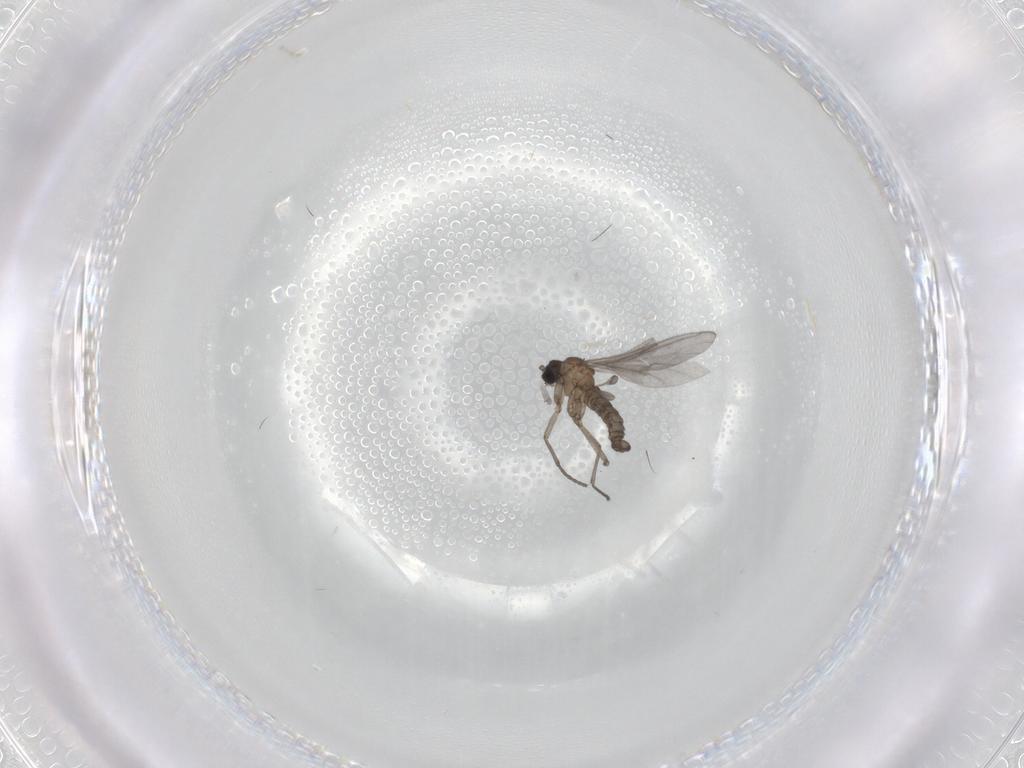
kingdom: Animalia
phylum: Arthropoda
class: Insecta
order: Diptera
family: Sciaridae
